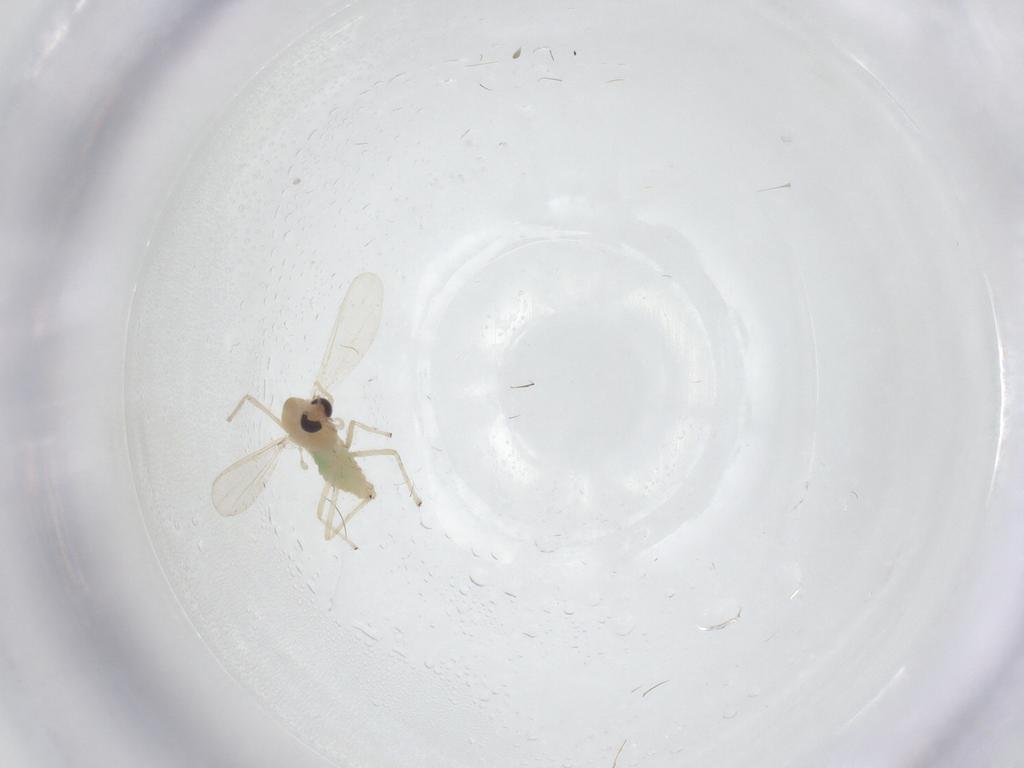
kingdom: Animalia
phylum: Arthropoda
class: Insecta
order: Diptera
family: Chironomidae
